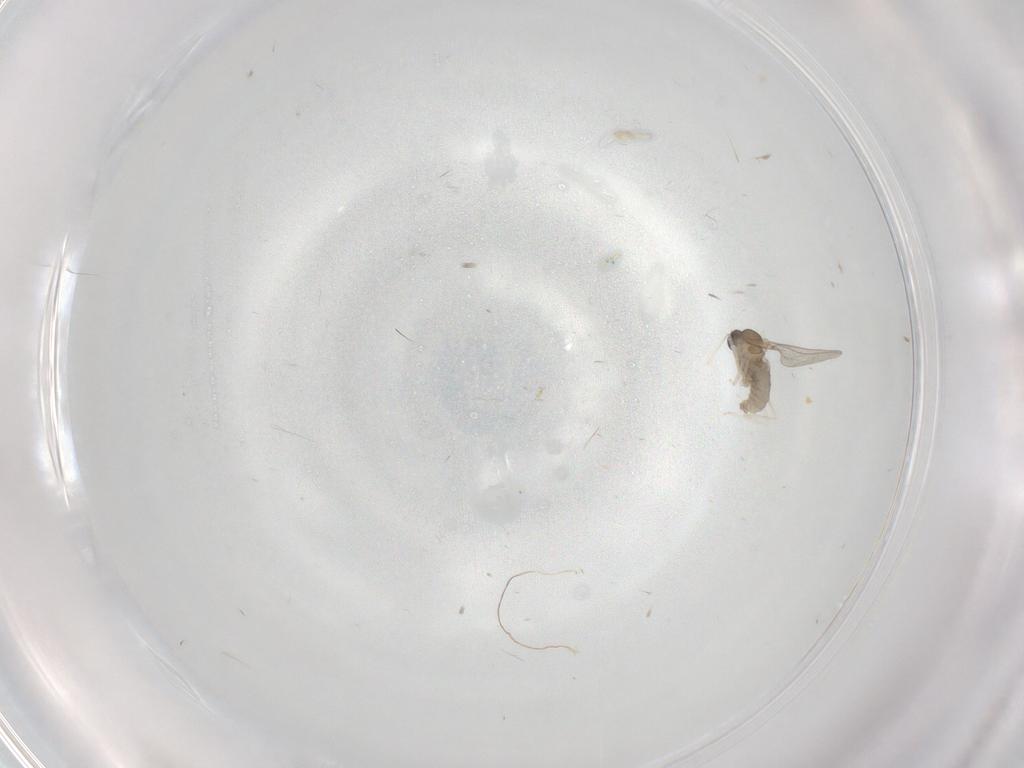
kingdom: Animalia
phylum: Arthropoda
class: Insecta
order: Diptera
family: Cecidomyiidae
